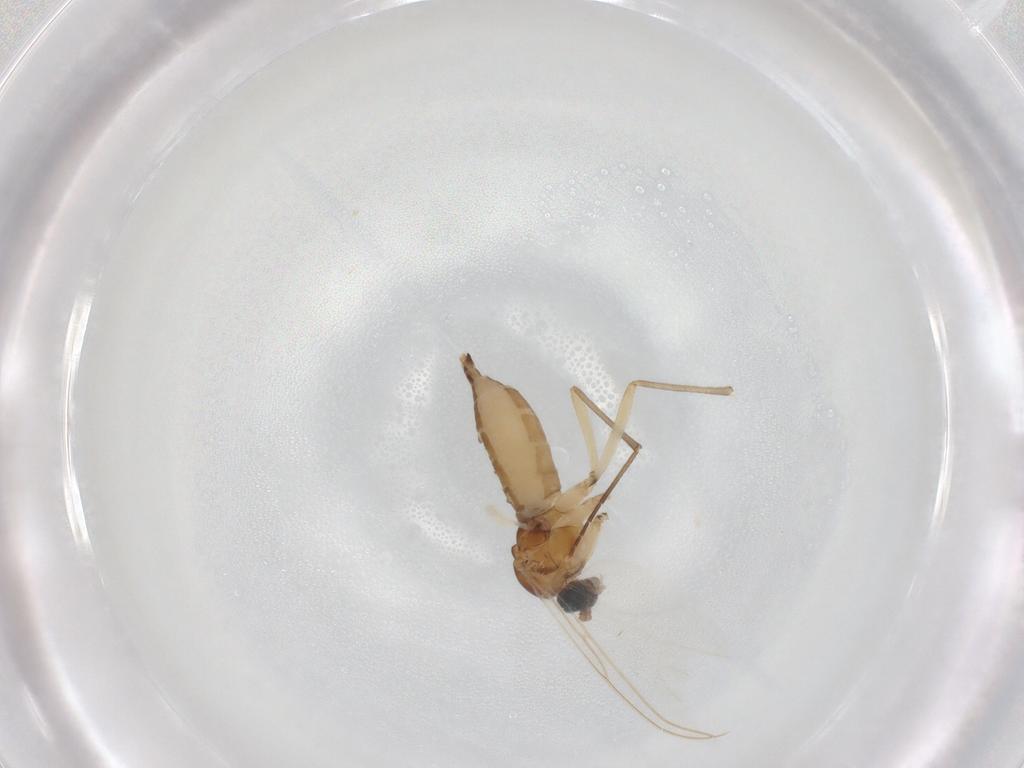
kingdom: Animalia
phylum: Arthropoda
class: Insecta
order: Diptera
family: Sciaridae
